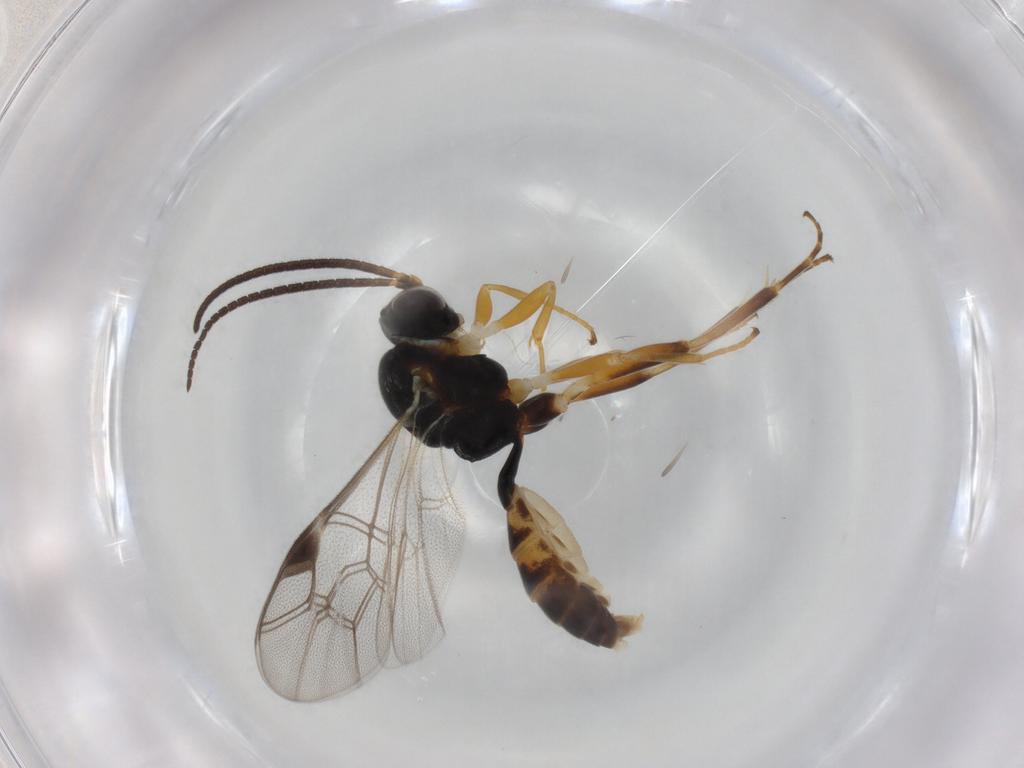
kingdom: Animalia
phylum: Arthropoda
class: Insecta
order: Hymenoptera
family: Ichneumonidae
